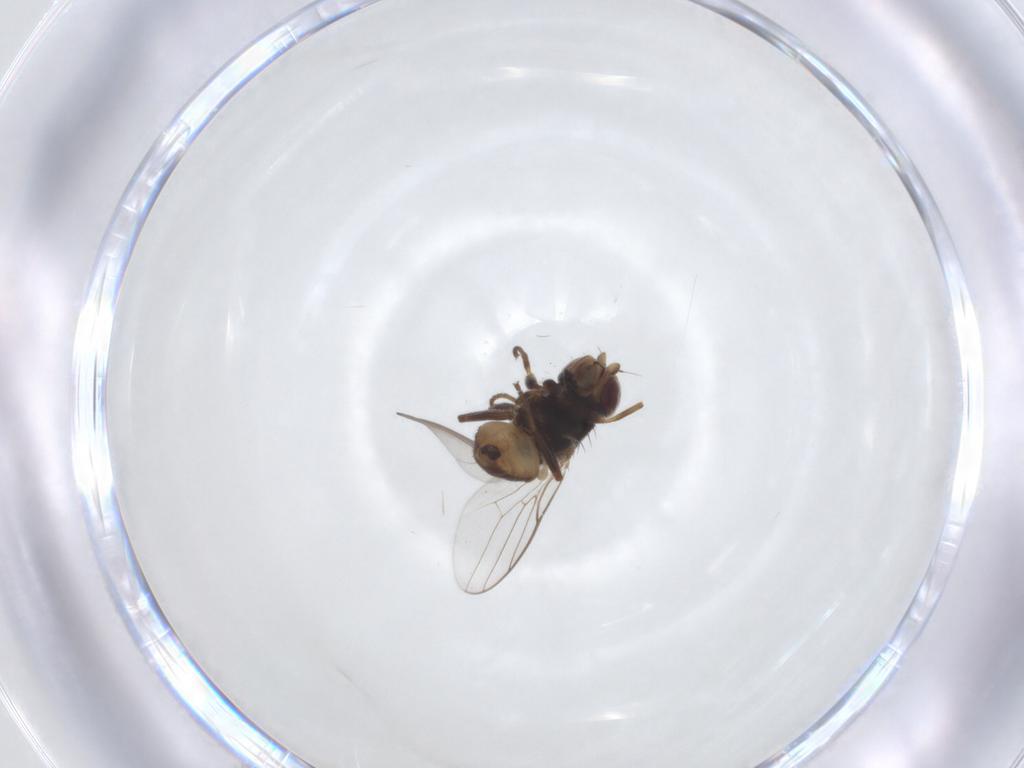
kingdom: Animalia
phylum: Arthropoda
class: Insecta
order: Diptera
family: Chloropidae
